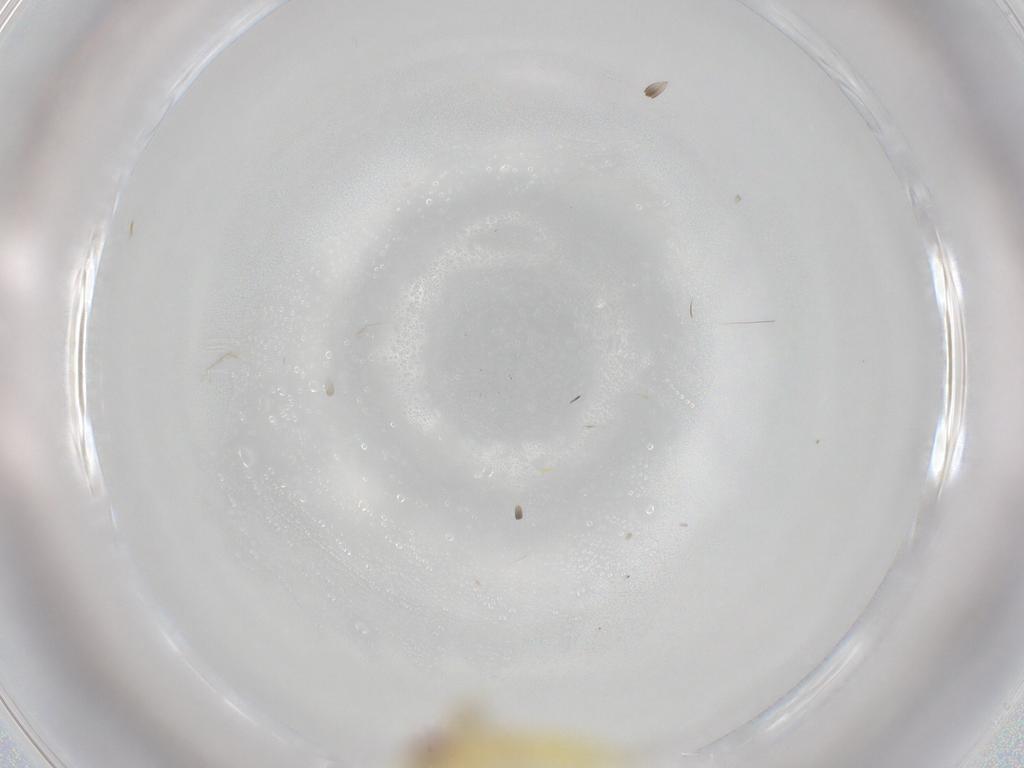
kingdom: Animalia
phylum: Arthropoda
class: Insecta
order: Hemiptera
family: Cicadellidae
